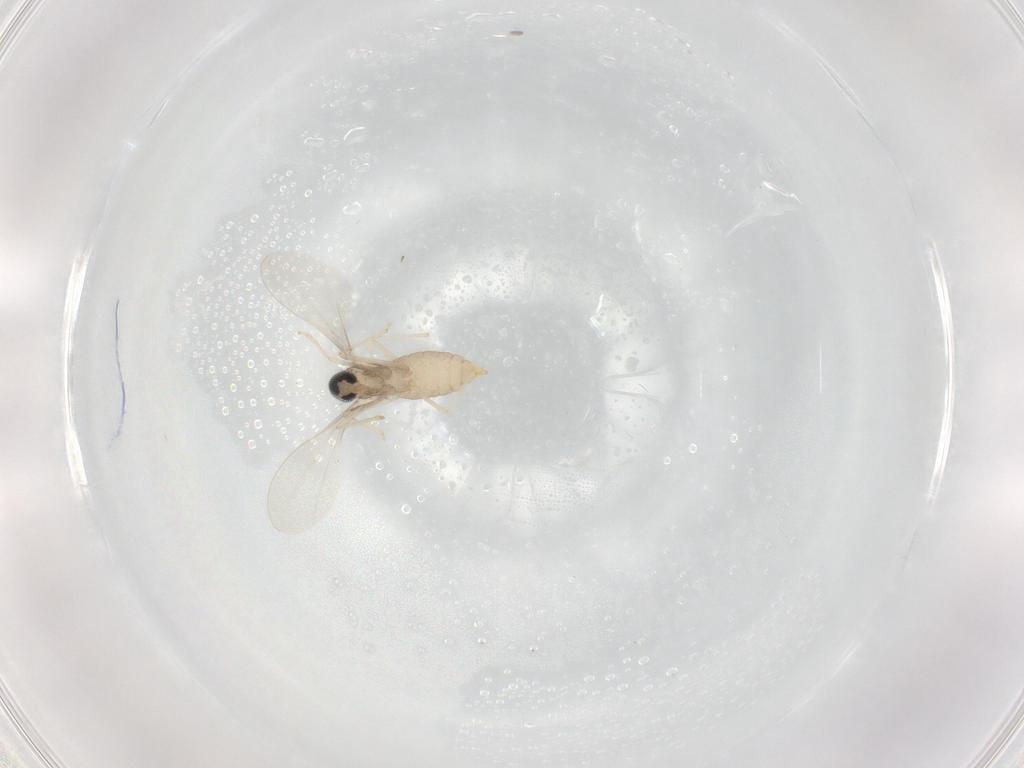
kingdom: Animalia
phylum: Arthropoda
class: Insecta
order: Diptera
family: Cecidomyiidae
